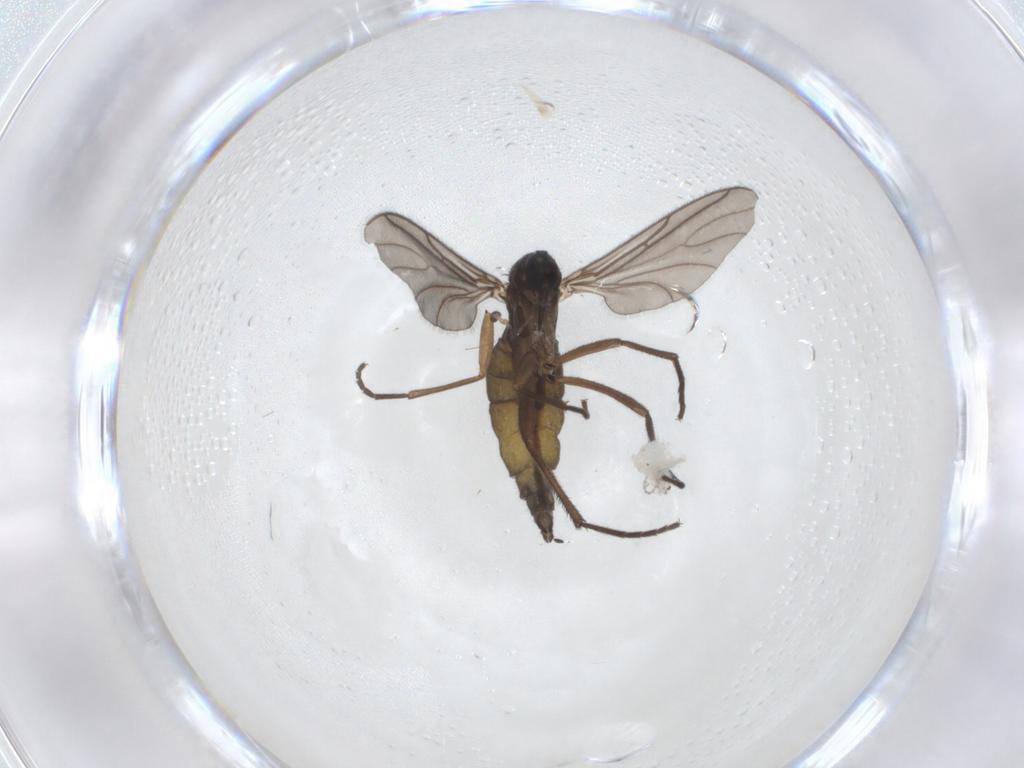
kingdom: Animalia
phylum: Arthropoda
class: Insecta
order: Diptera
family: Sciaridae
